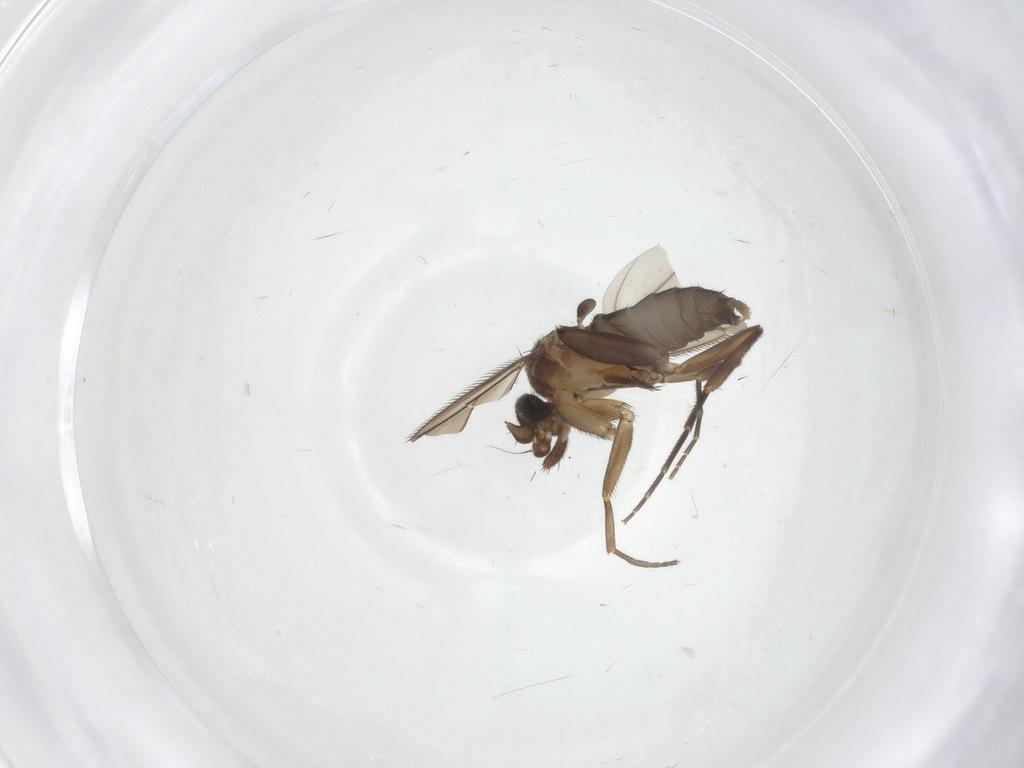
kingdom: Animalia
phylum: Arthropoda
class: Insecta
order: Diptera
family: Phoridae
